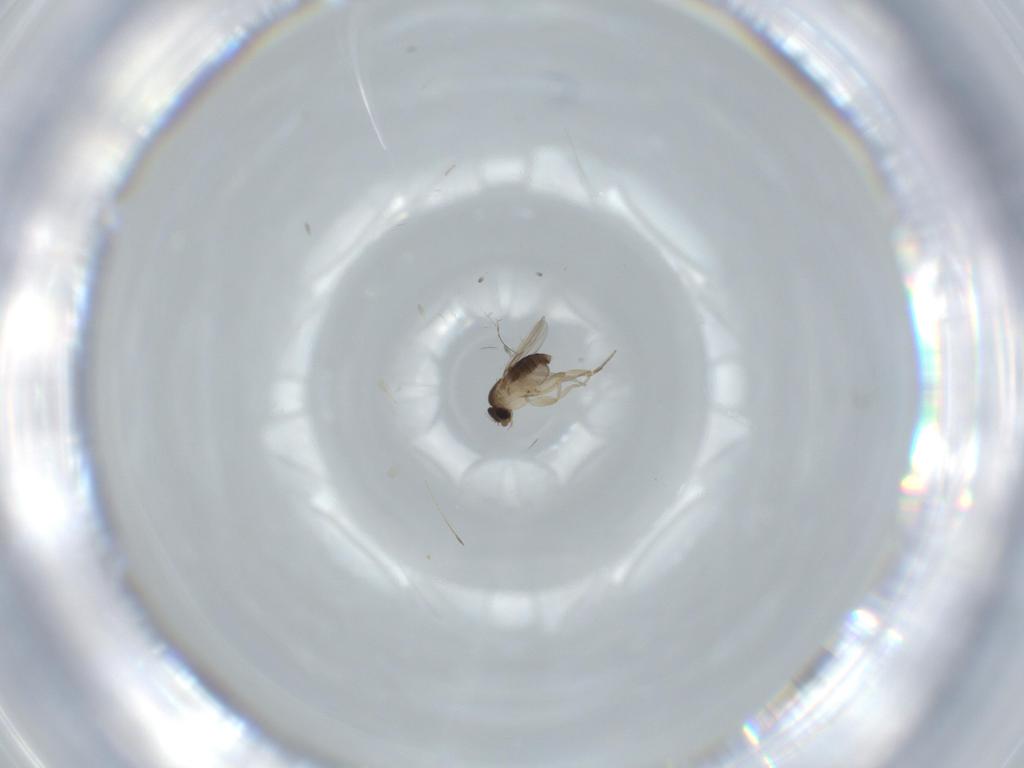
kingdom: Animalia
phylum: Arthropoda
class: Insecta
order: Diptera
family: Phoridae
